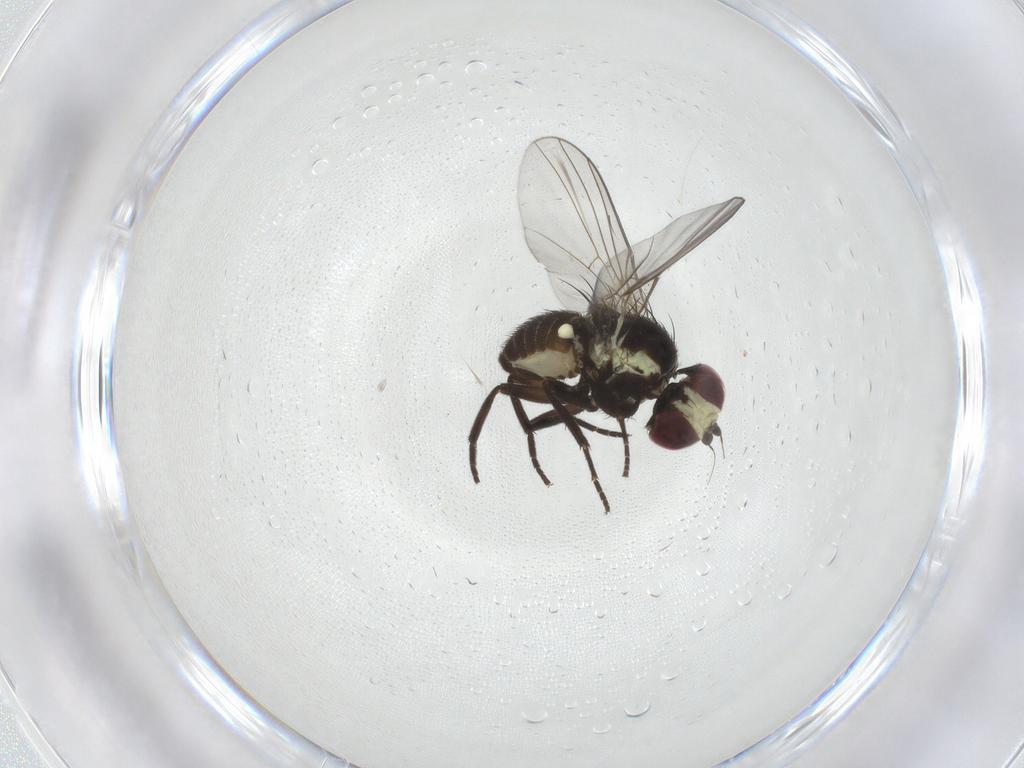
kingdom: Animalia
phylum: Arthropoda
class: Insecta
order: Diptera
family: Agromyzidae
